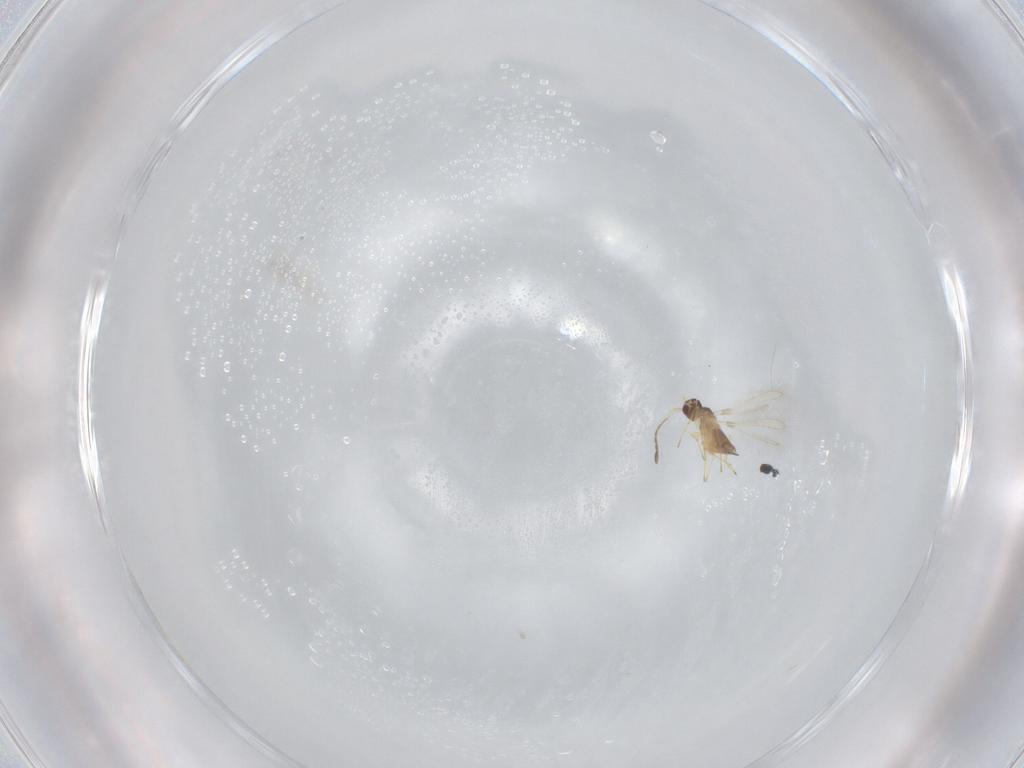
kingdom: Animalia
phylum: Arthropoda
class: Insecta
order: Hymenoptera
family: Mymaridae
